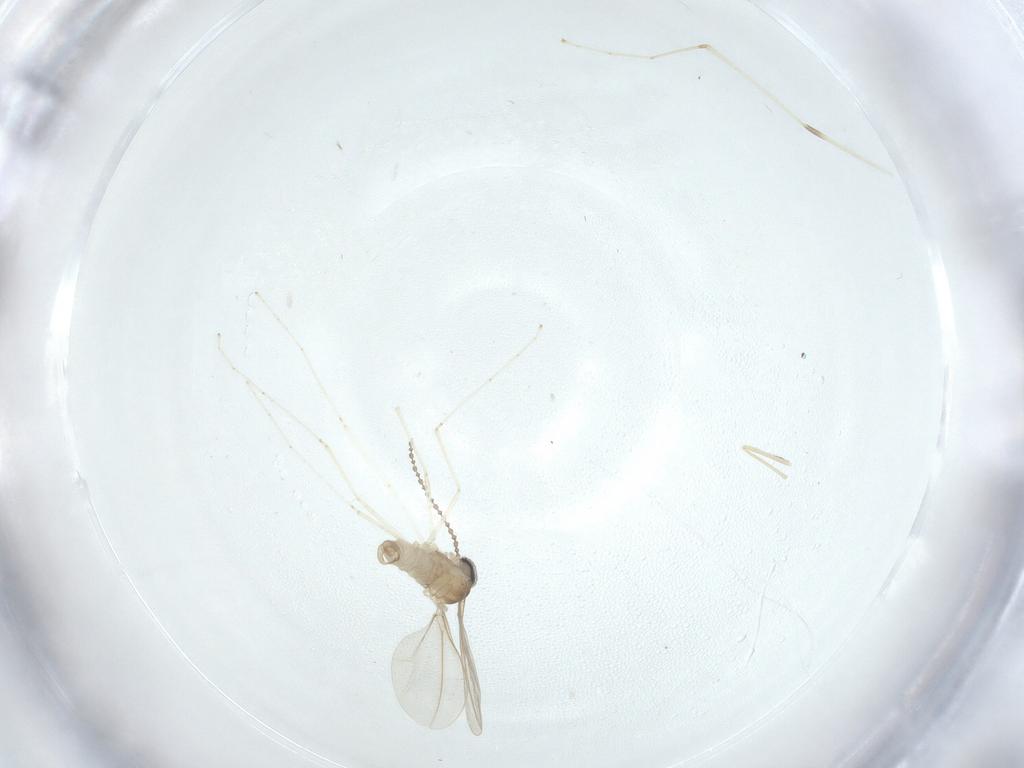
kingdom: Animalia
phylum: Arthropoda
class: Insecta
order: Diptera
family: Cecidomyiidae
